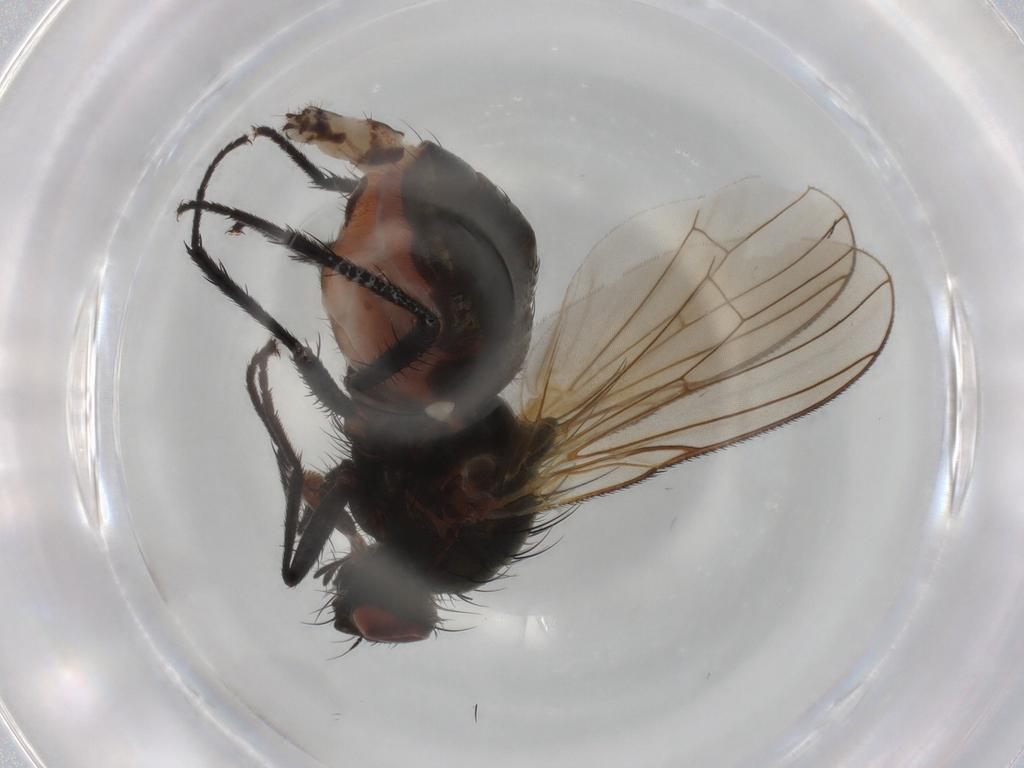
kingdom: Animalia
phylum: Arthropoda
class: Insecta
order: Diptera
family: Anthomyiidae
